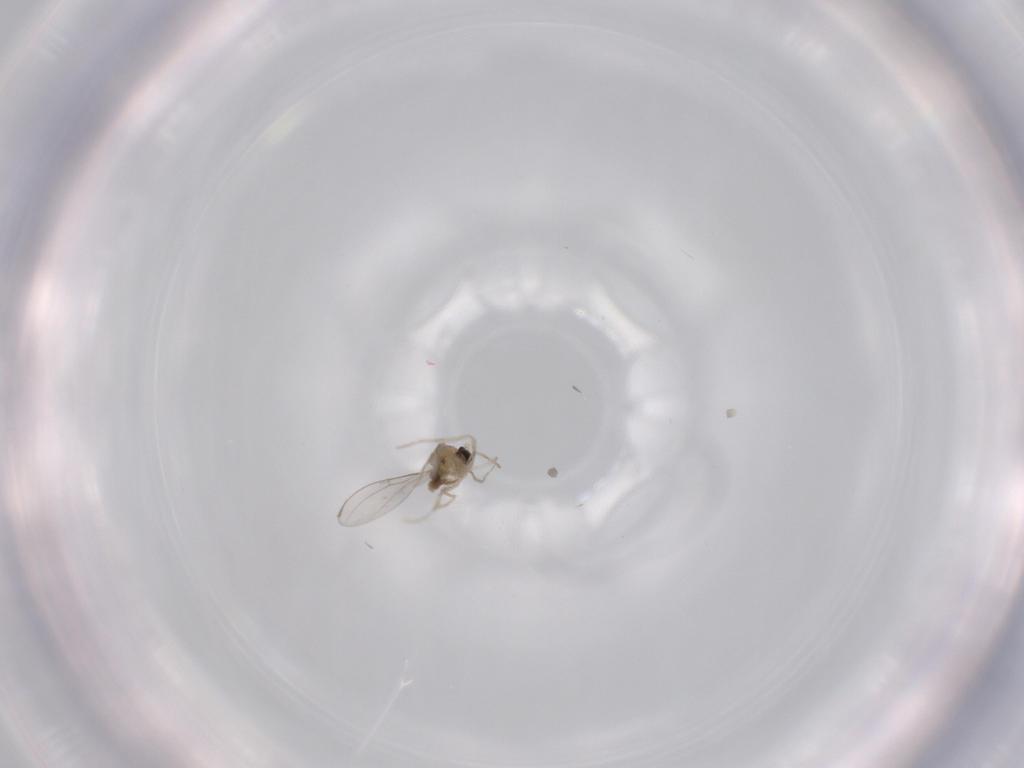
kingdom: Animalia
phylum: Arthropoda
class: Insecta
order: Diptera
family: Cecidomyiidae
